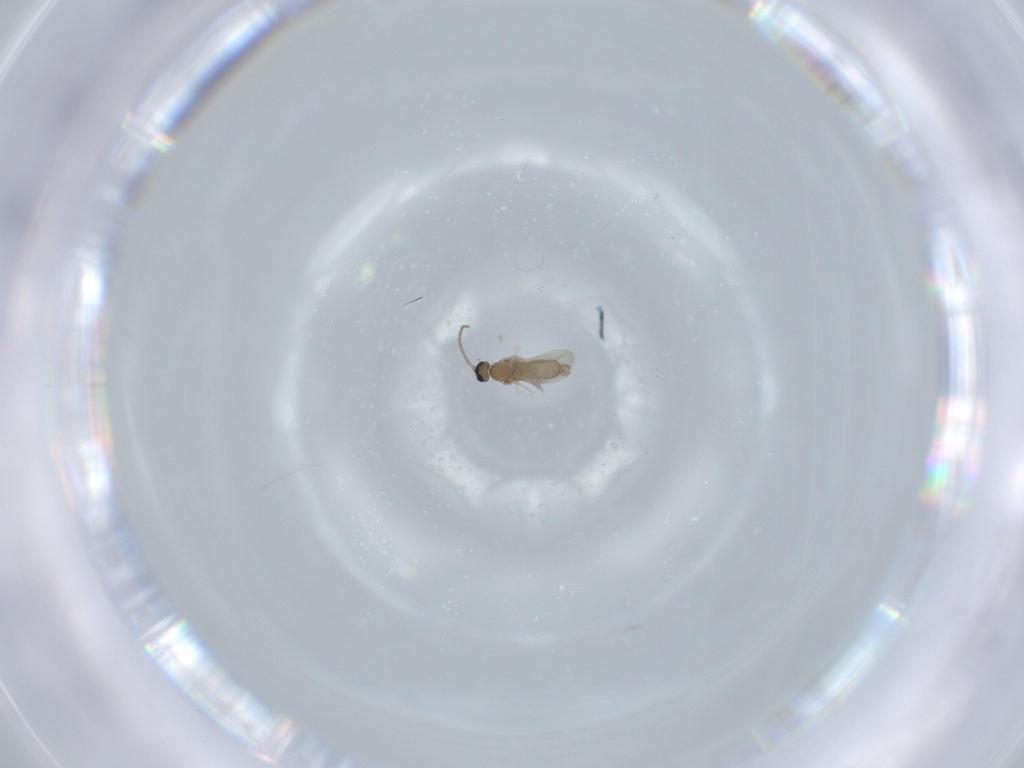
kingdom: Animalia
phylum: Arthropoda
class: Insecta
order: Diptera
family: Cecidomyiidae
